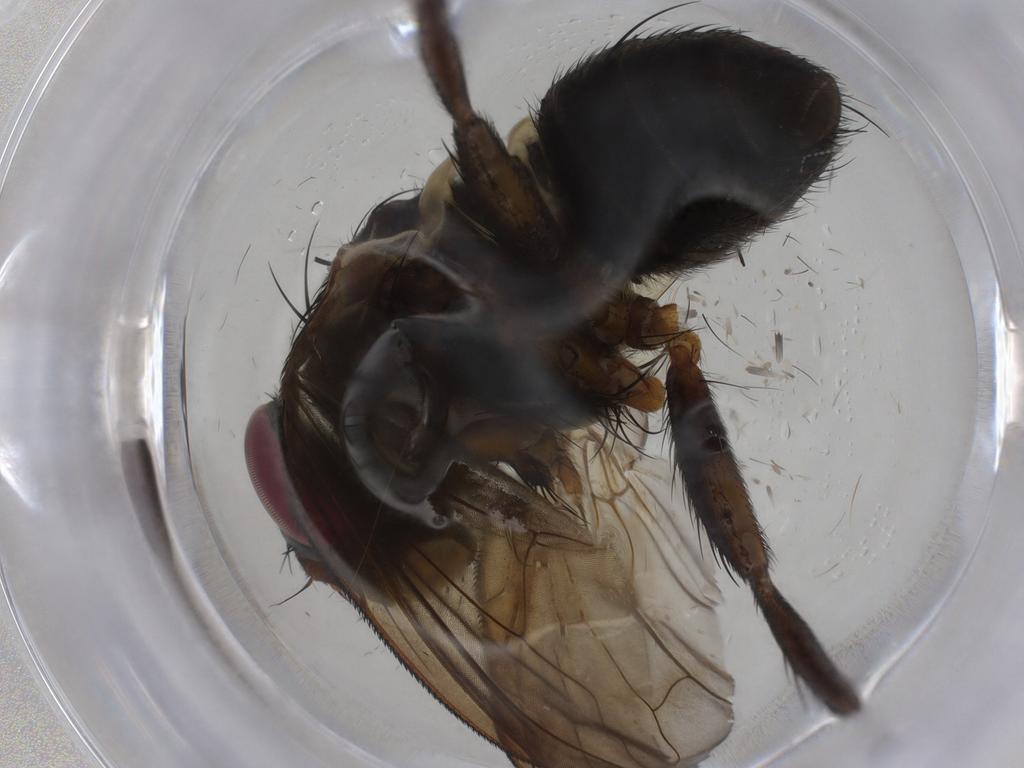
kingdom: Animalia
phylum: Arthropoda
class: Insecta
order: Diptera
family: Tachinidae
